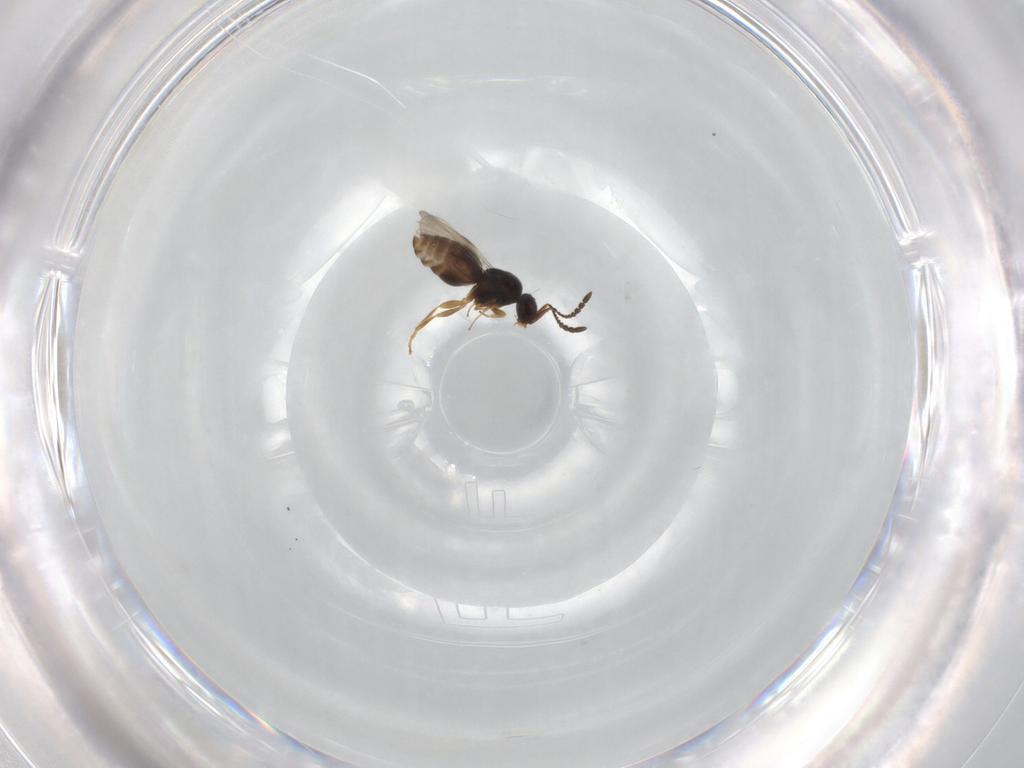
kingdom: Animalia
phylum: Arthropoda
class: Insecta
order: Hymenoptera
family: Ceraphronidae
